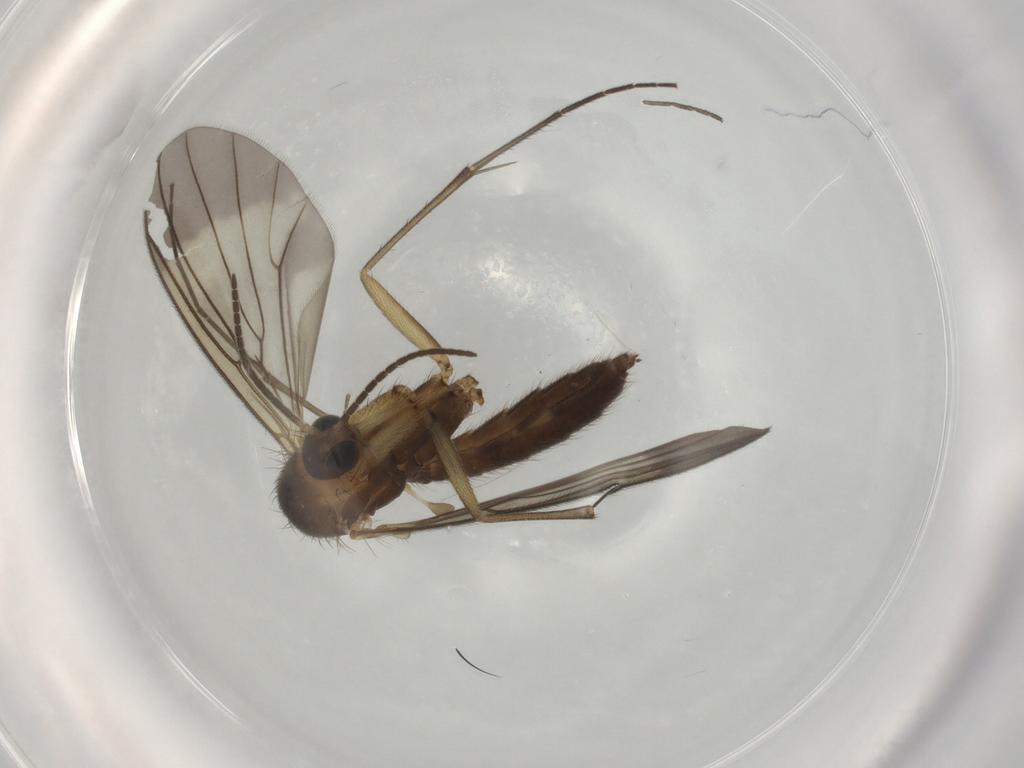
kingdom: Animalia
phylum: Arthropoda
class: Insecta
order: Diptera
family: Mycetophilidae
